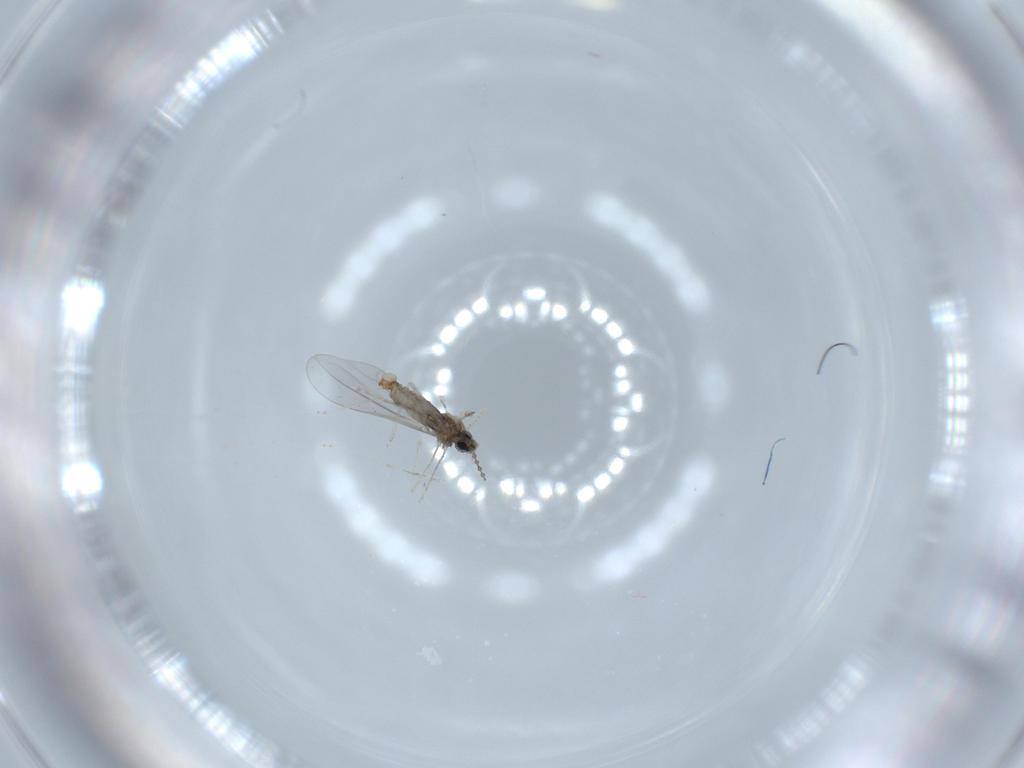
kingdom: Animalia
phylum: Arthropoda
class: Insecta
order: Diptera
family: Cecidomyiidae
